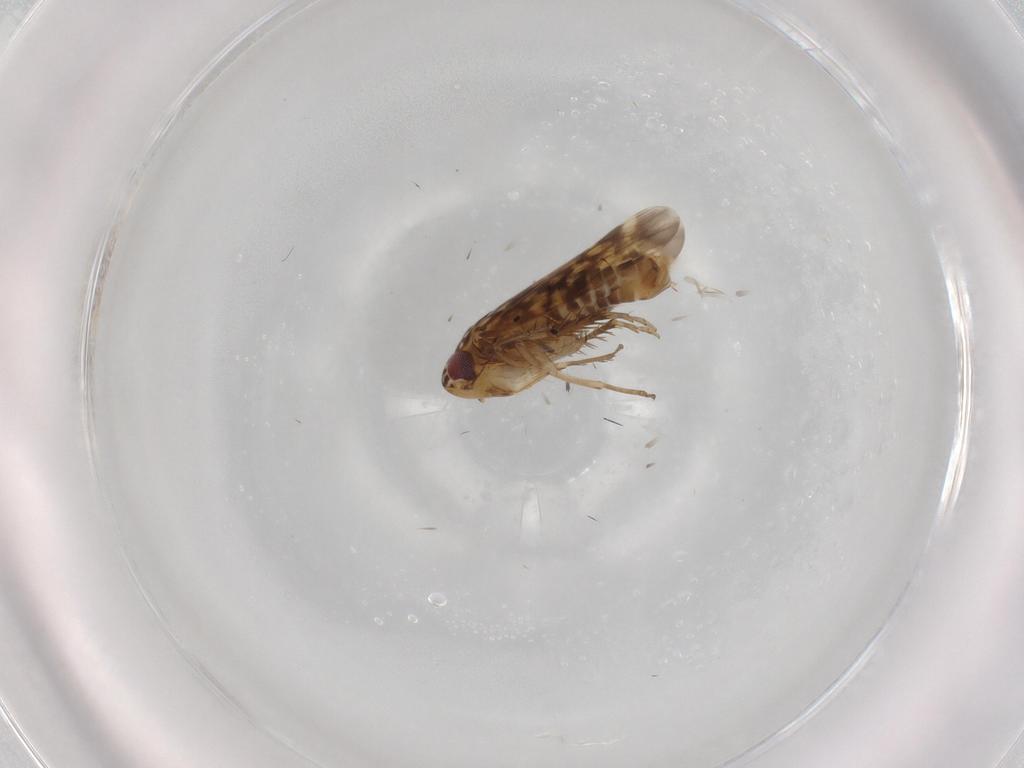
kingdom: Animalia
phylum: Arthropoda
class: Insecta
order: Hemiptera
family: Cicadellidae
